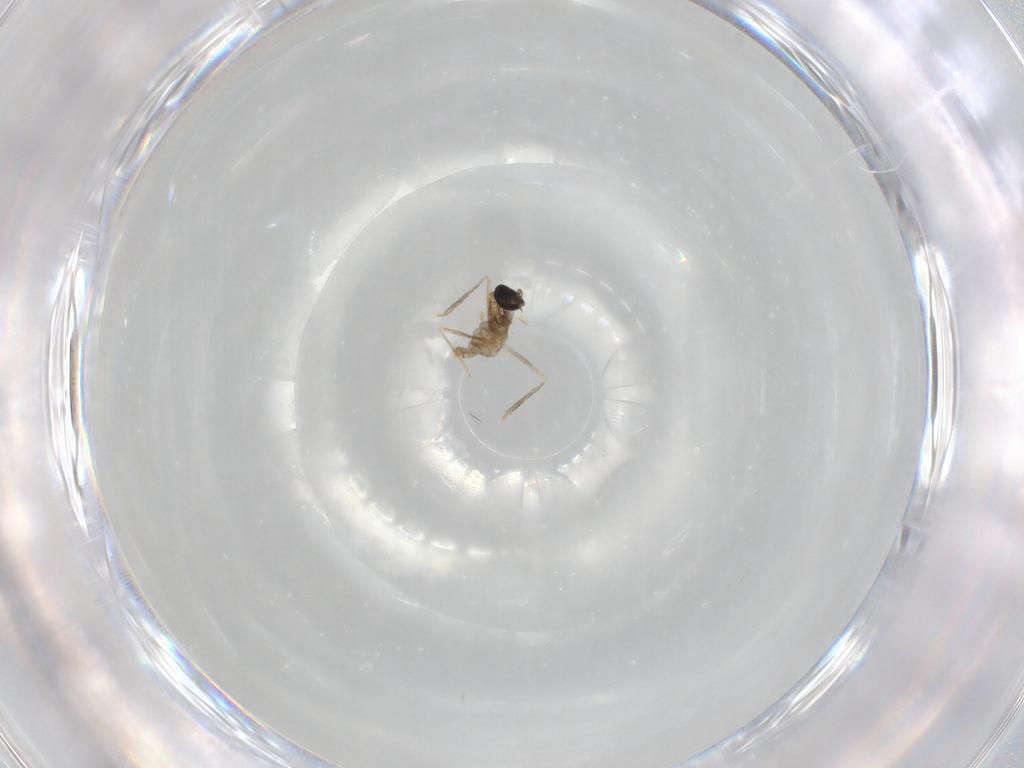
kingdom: Animalia
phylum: Arthropoda
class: Insecta
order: Diptera
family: Cecidomyiidae
